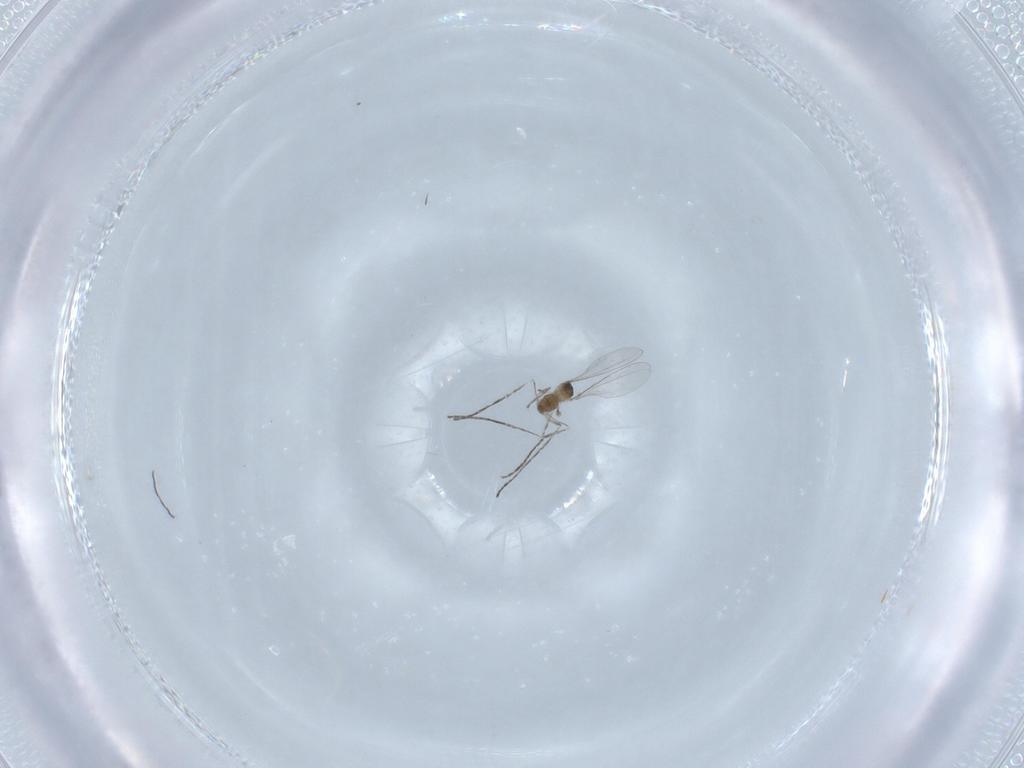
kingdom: Animalia
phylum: Arthropoda
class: Insecta
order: Diptera
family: Cecidomyiidae
